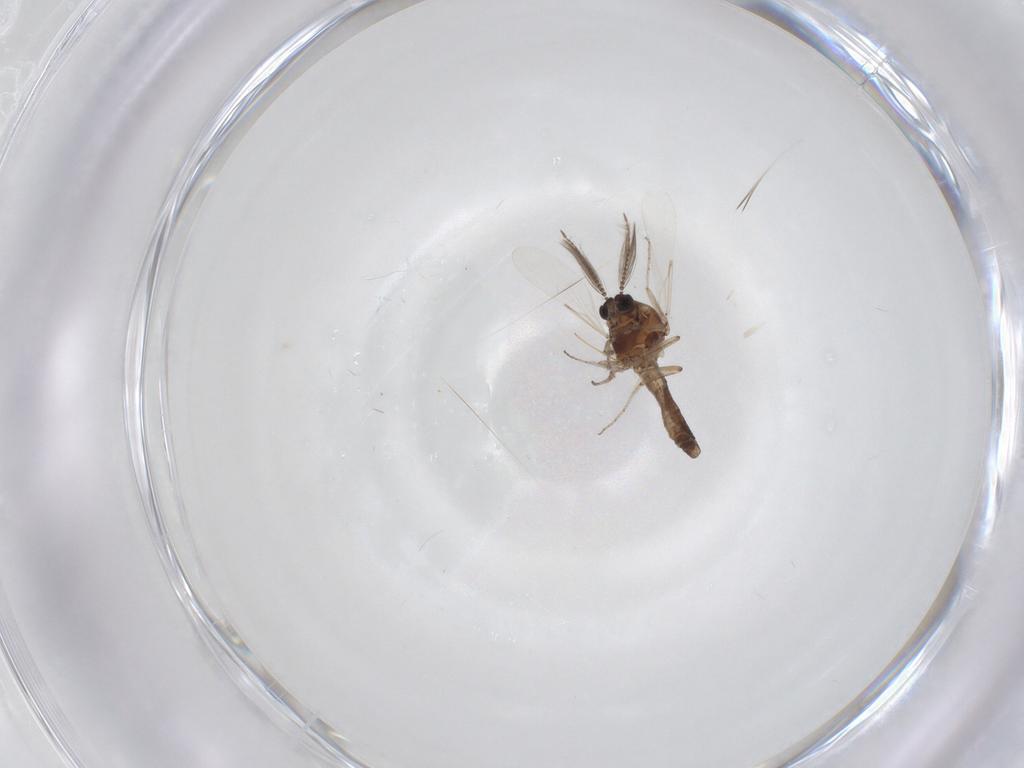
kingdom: Animalia
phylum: Arthropoda
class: Insecta
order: Diptera
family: Ceratopogonidae
